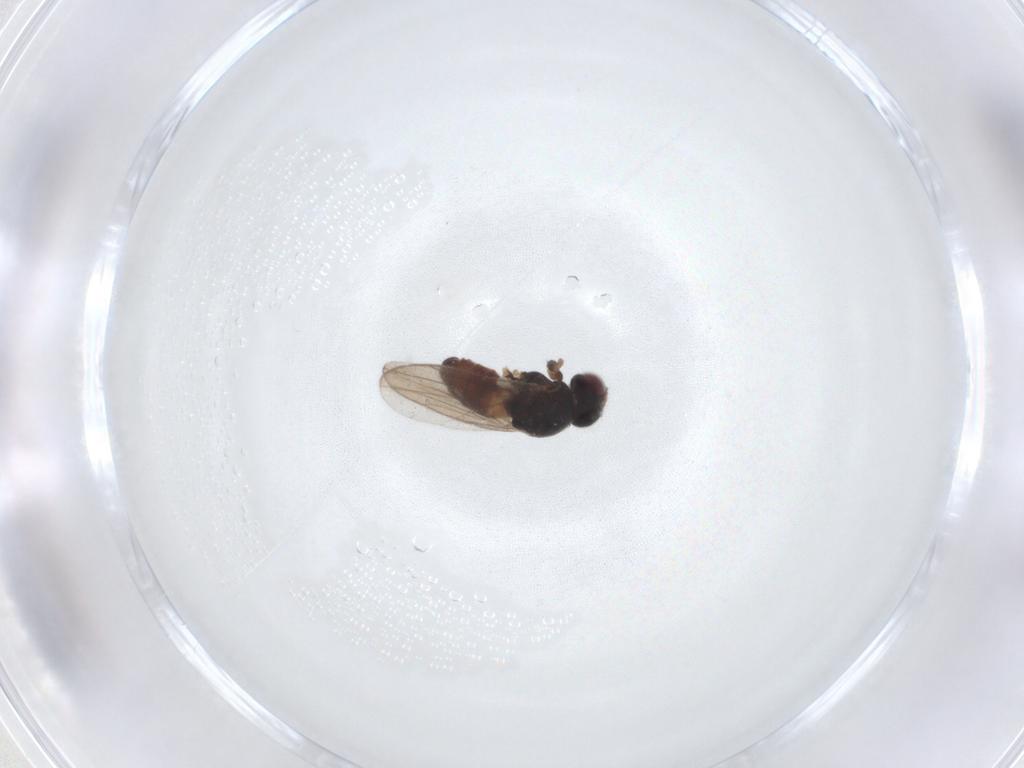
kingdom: Animalia
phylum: Arthropoda
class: Insecta
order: Diptera
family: Chloropidae
